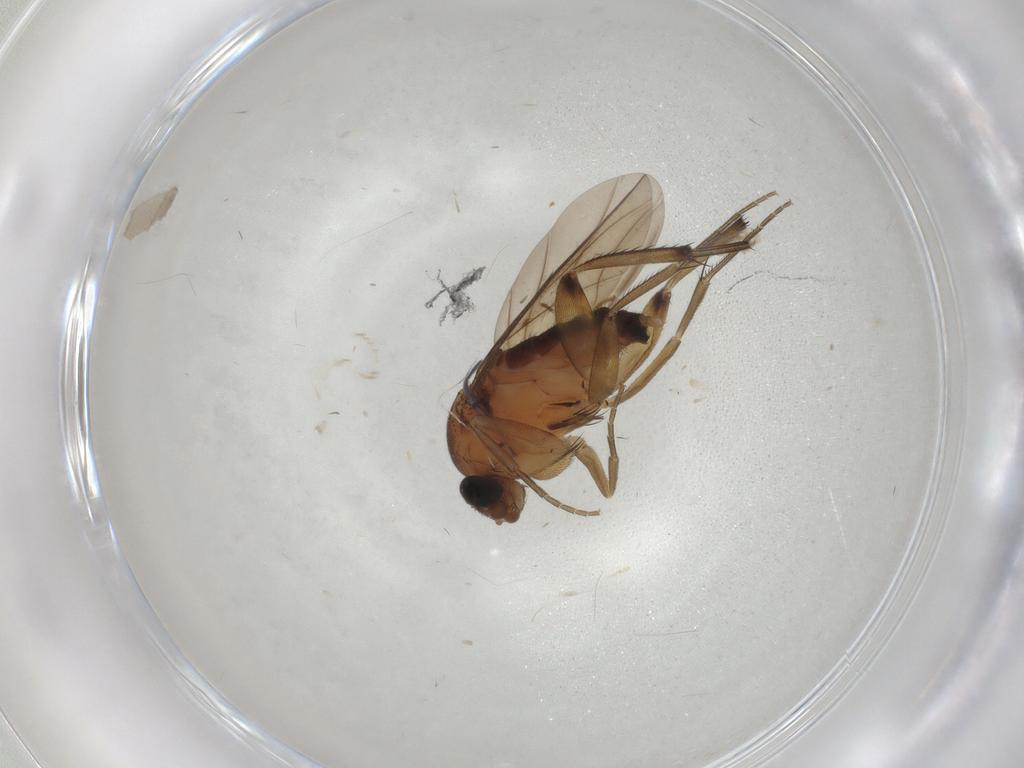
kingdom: Animalia
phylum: Arthropoda
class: Insecta
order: Diptera
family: Phoridae
